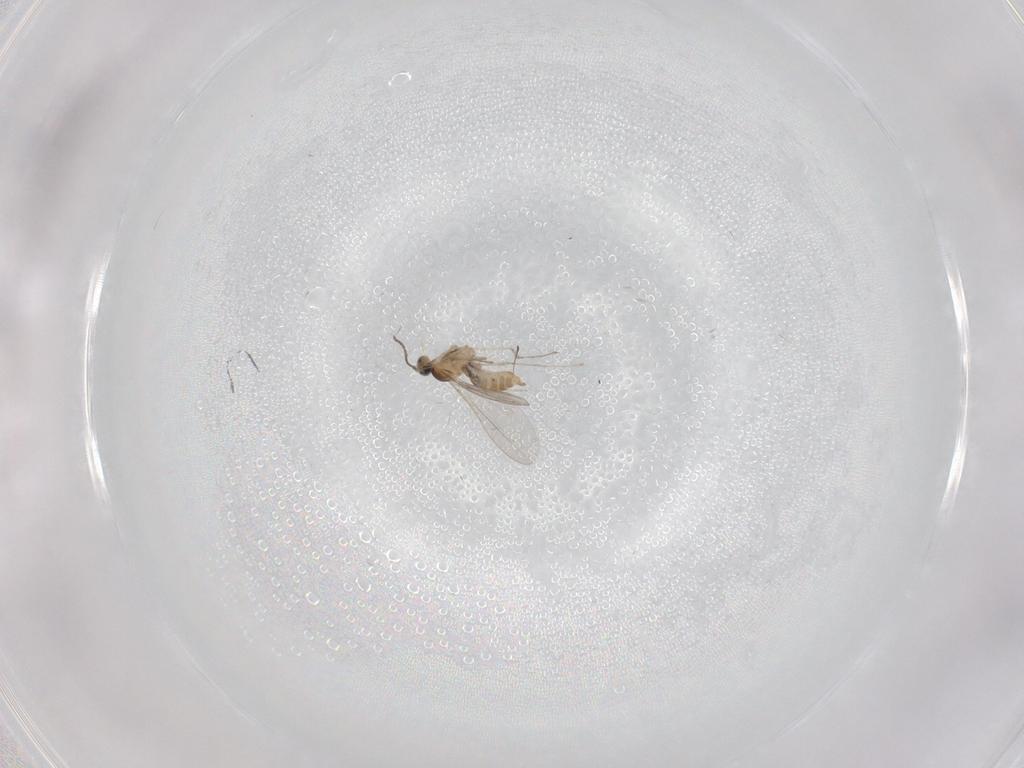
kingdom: Animalia
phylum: Arthropoda
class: Insecta
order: Diptera
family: Cecidomyiidae
